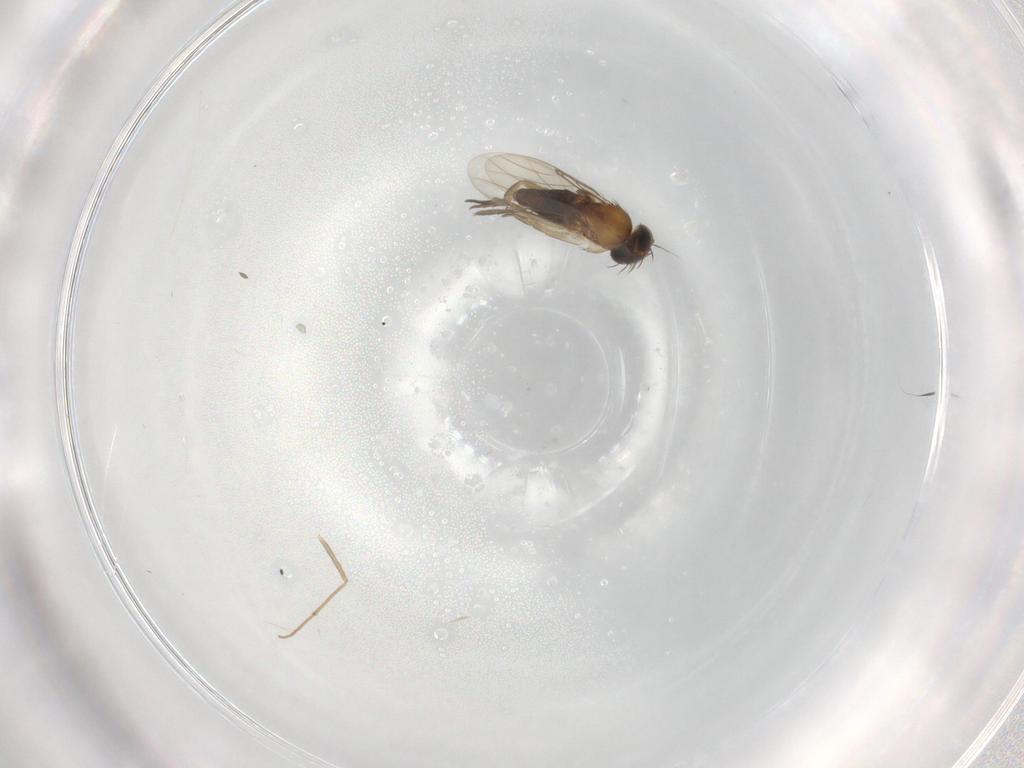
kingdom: Animalia
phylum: Arthropoda
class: Insecta
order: Diptera
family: Phoridae
